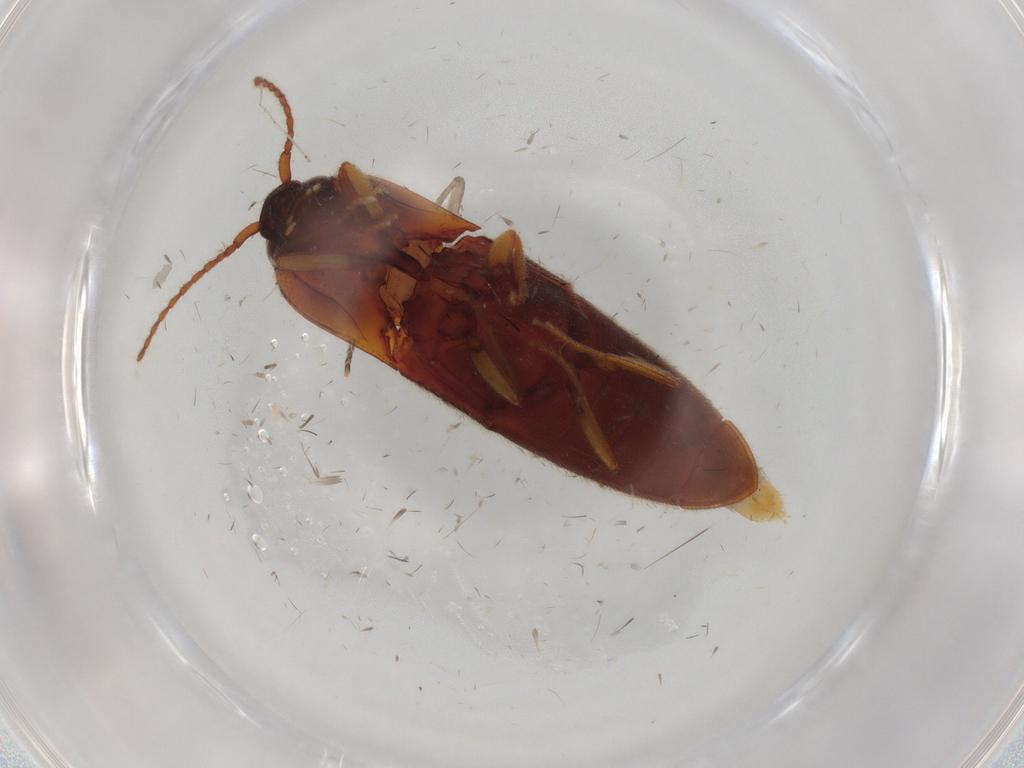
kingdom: Animalia
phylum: Arthropoda
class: Insecta
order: Coleoptera
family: Elateridae
